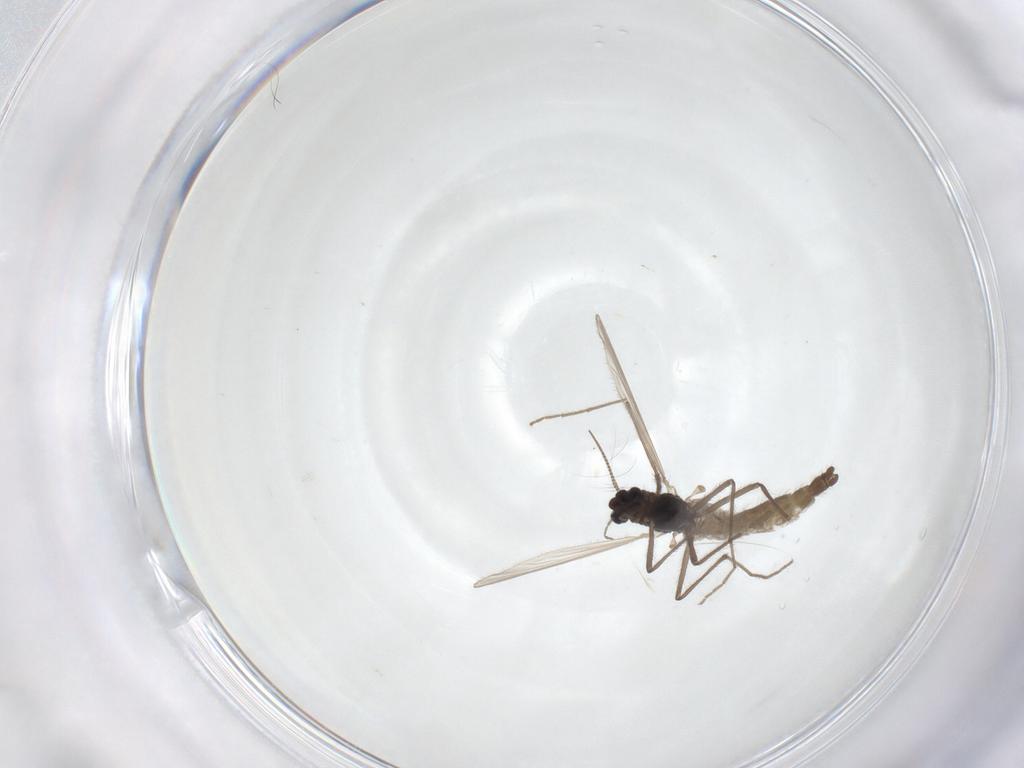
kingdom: Animalia
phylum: Arthropoda
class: Insecta
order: Diptera
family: Chironomidae
